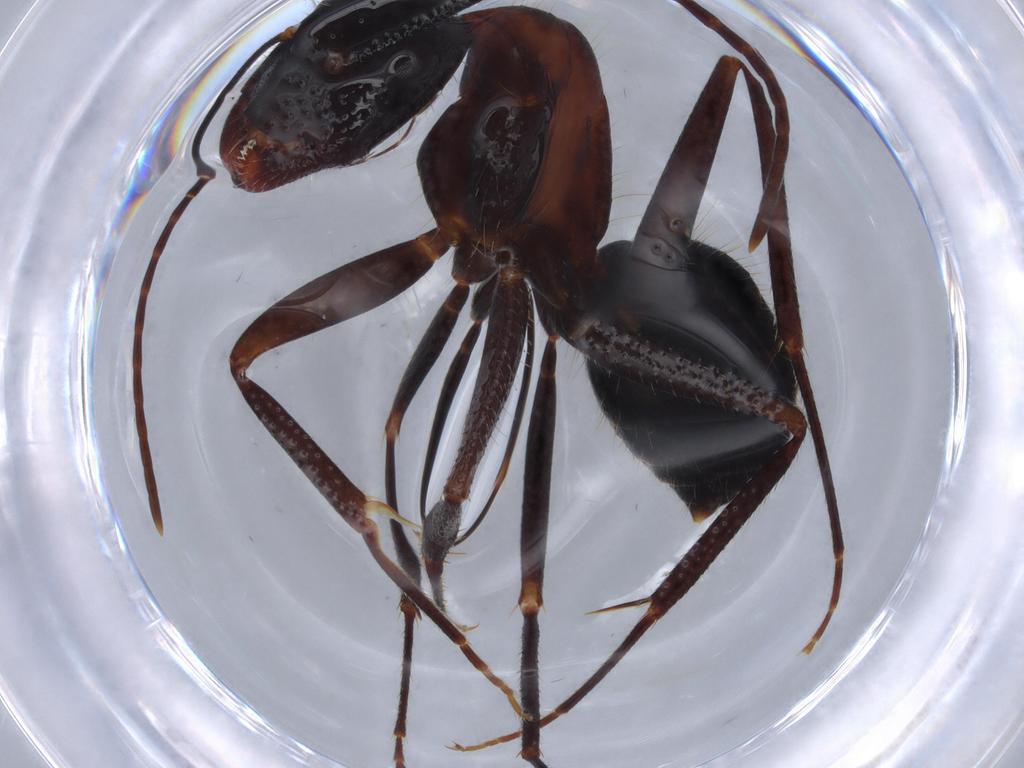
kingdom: Animalia
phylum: Arthropoda
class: Insecta
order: Hymenoptera
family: Formicidae
